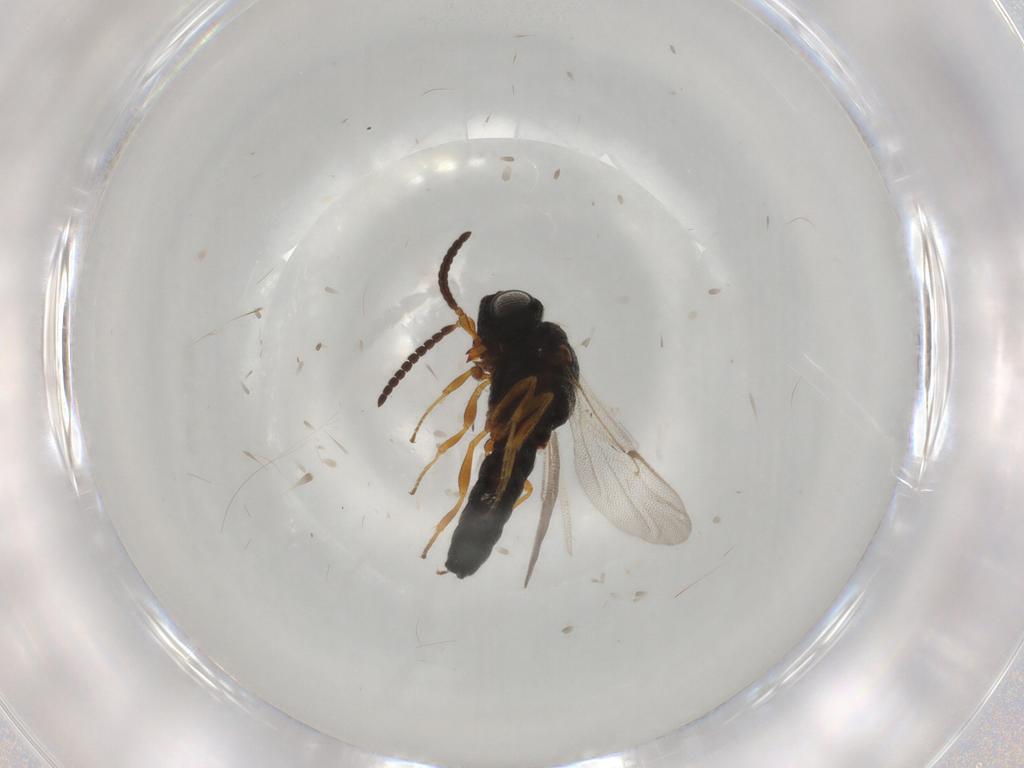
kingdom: Animalia
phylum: Arthropoda
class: Insecta
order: Hymenoptera
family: Scelionidae
